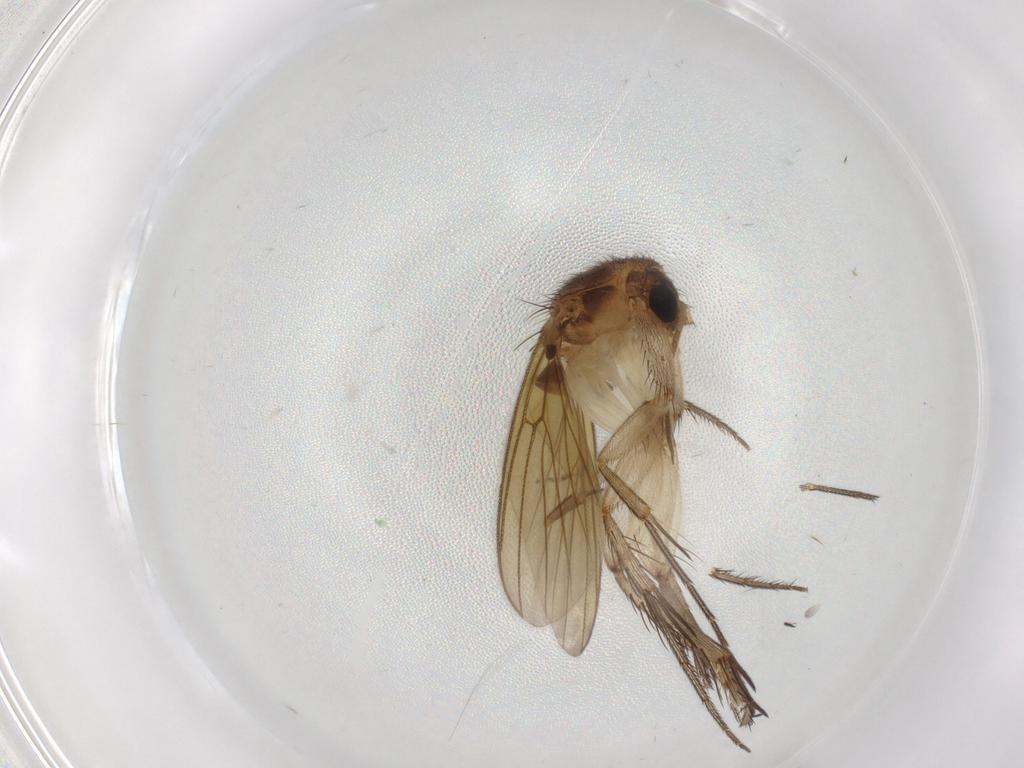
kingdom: Animalia
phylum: Arthropoda
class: Insecta
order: Diptera
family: Mycetophilidae
